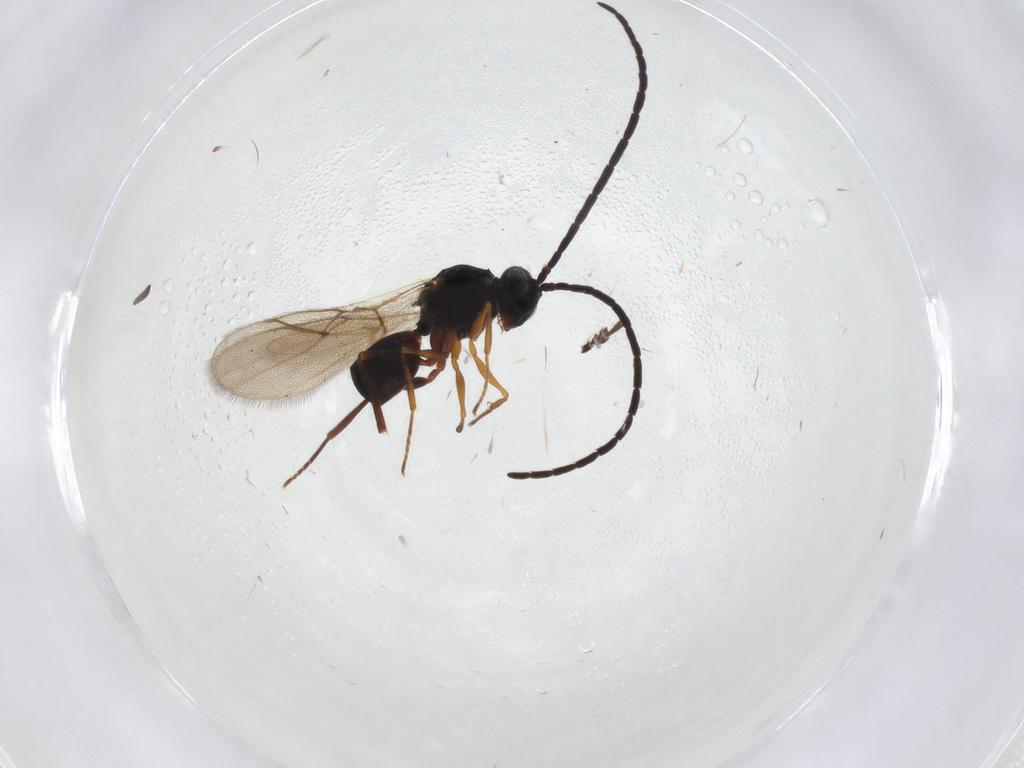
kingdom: Animalia
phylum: Arthropoda
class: Insecta
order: Hymenoptera
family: Figitidae
